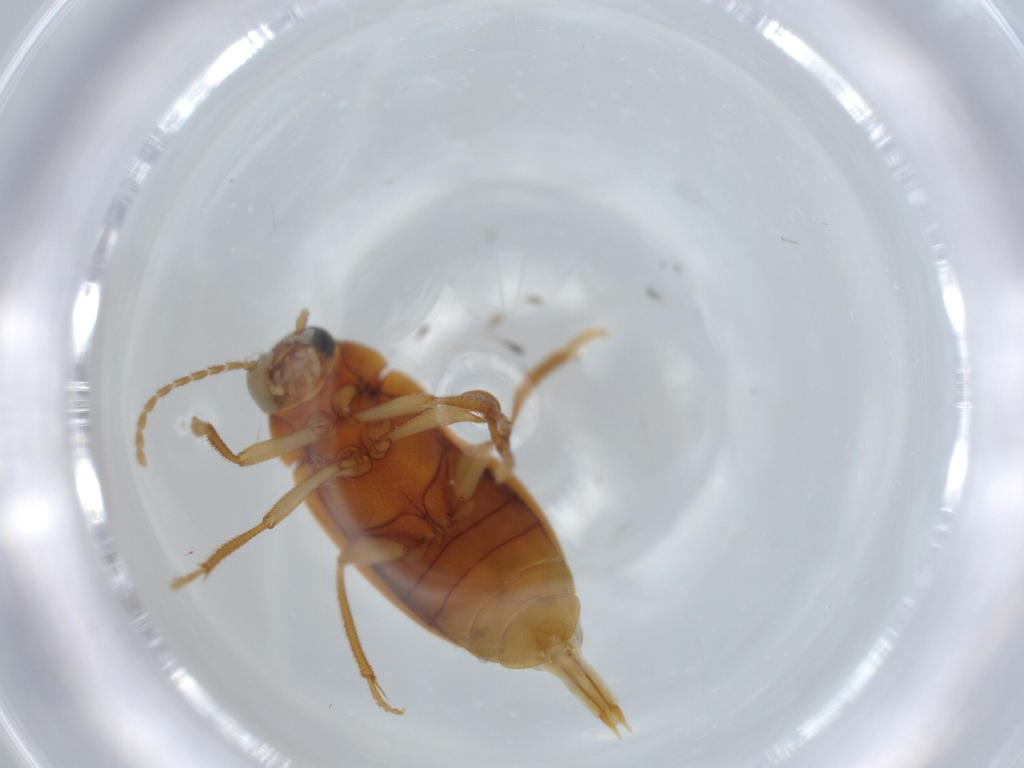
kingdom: Animalia
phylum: Arthropoda
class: Insecta
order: Coleoptera
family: Ptilodactylidae
